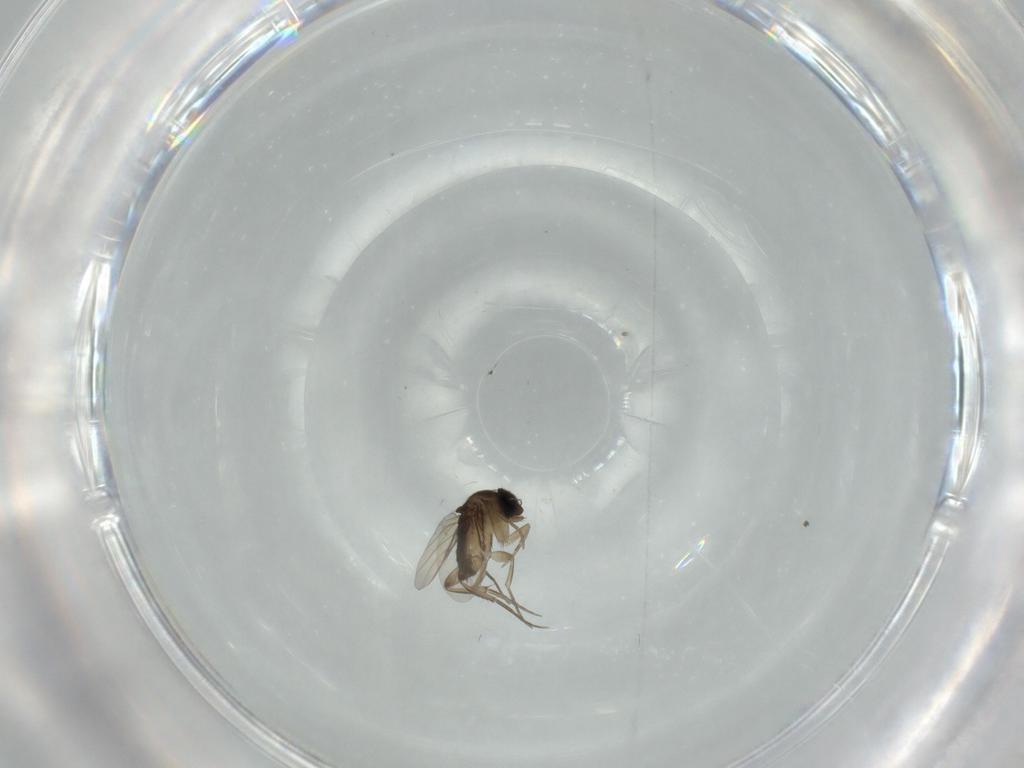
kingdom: Animalia
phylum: Arthropoda
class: Insecta
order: Diptera
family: Phoridae
